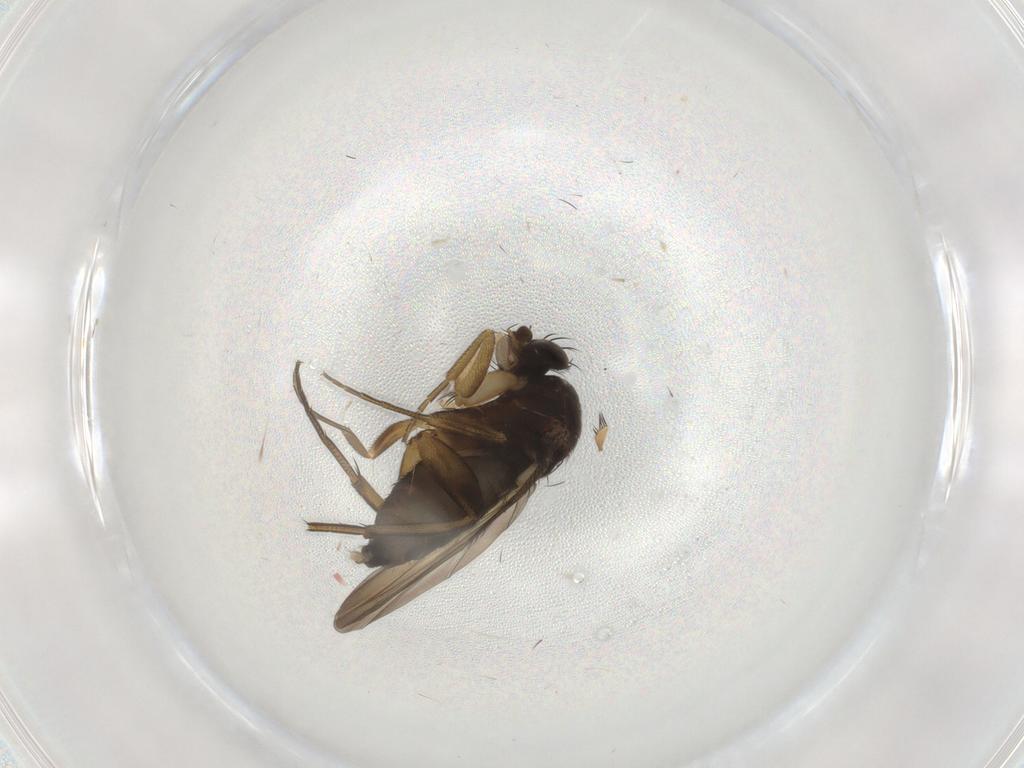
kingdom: Animalia
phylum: Arthropoda
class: Insecta
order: Diptera
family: Phoridae
